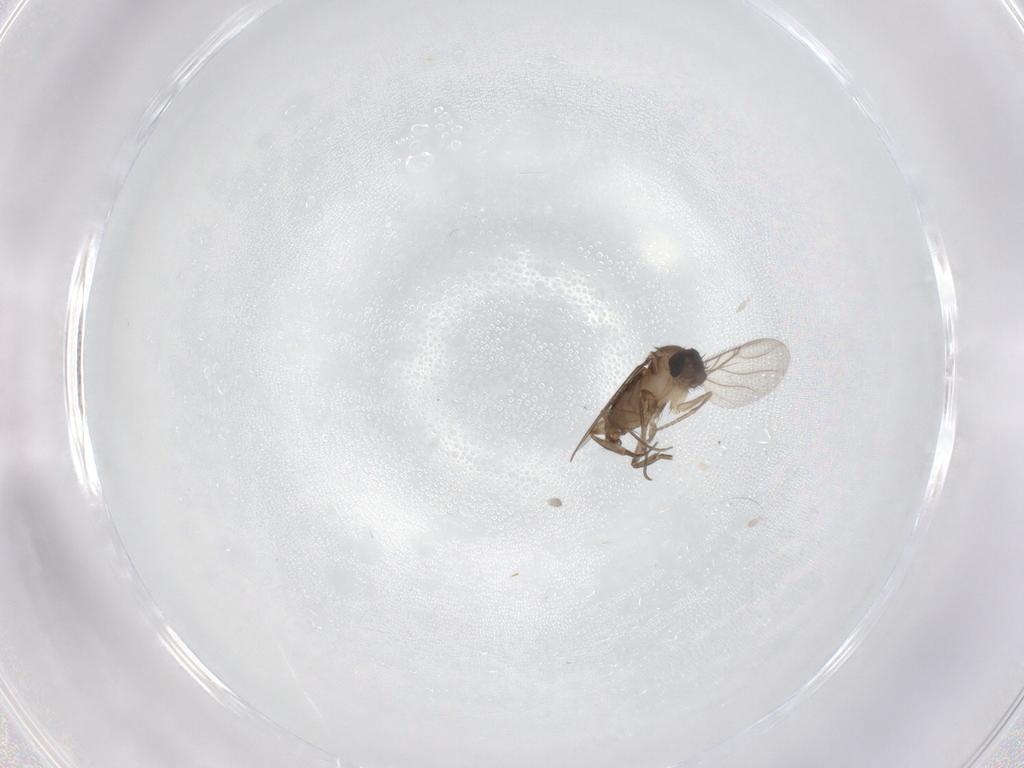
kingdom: Animalia
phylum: Arthropoda
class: Insecta
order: Diptera
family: Phoridae
